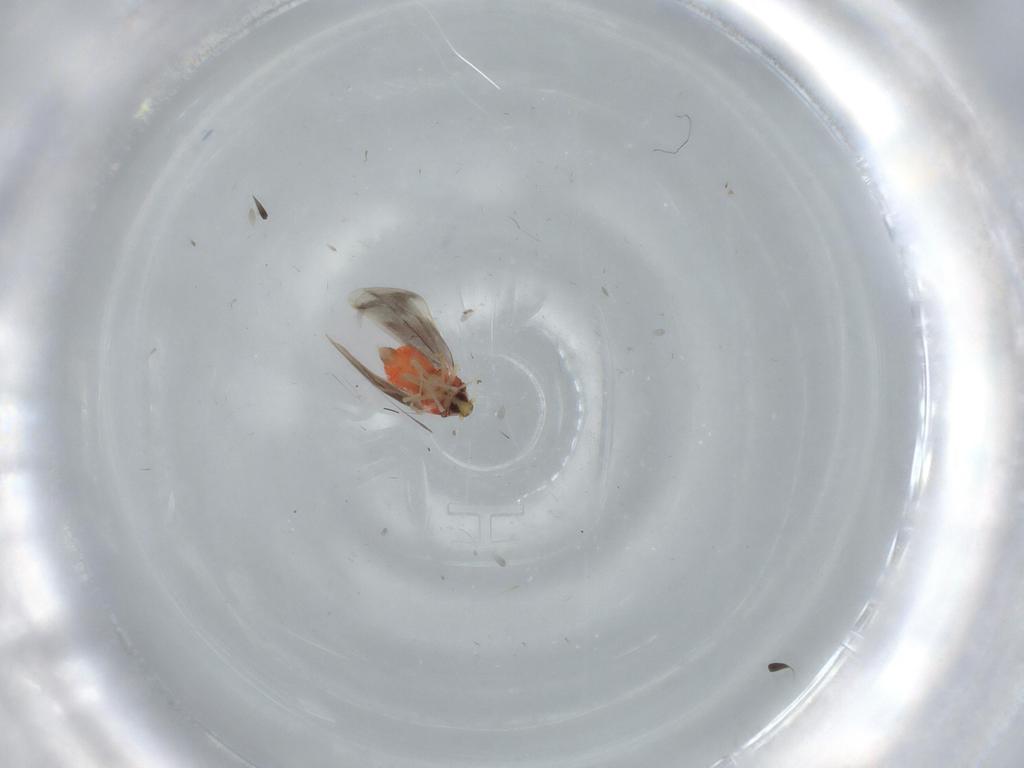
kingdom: Animalia
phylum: Arthropoda
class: Insecta
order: Hemiptera
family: Aleyrodidae
